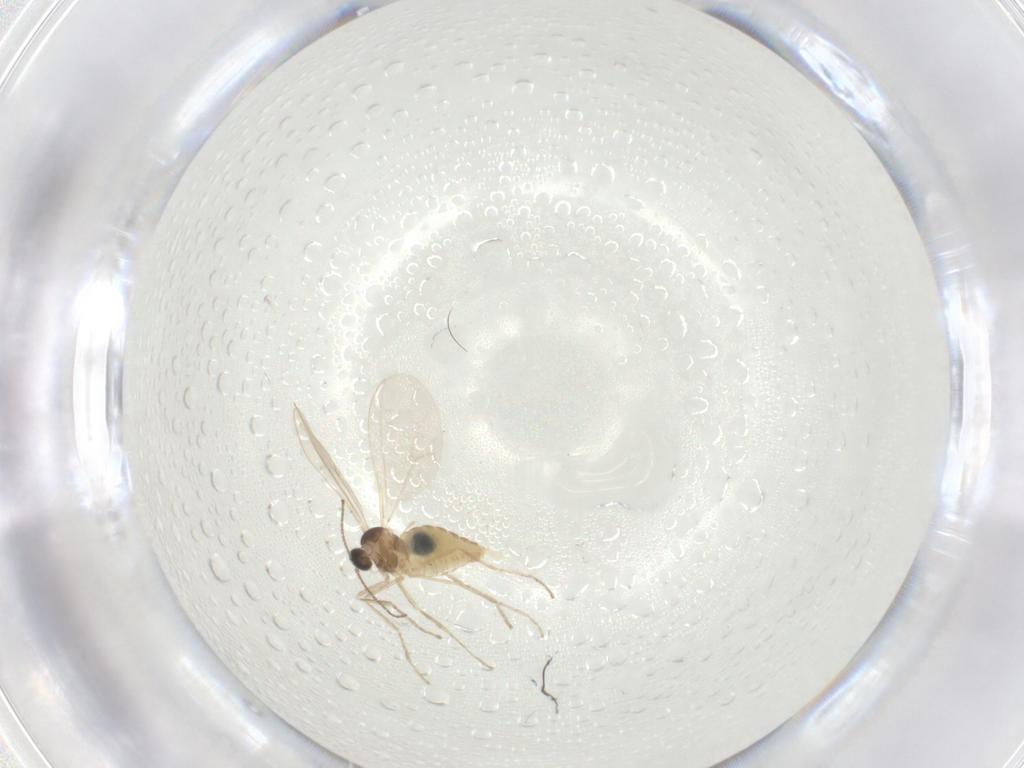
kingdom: Animalia
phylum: Arthropoda
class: Insecta
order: Diptera
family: Cecidomyiidae
